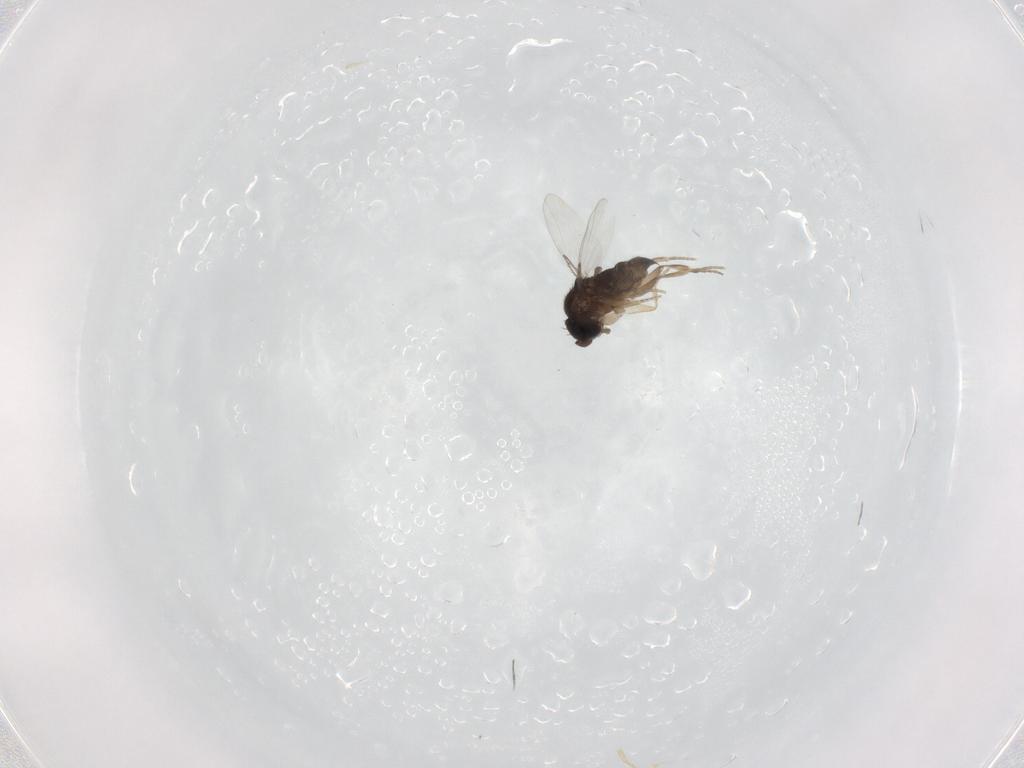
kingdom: Animalia
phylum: Arthropoda
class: Insecta
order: Diptera
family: Phoridae
